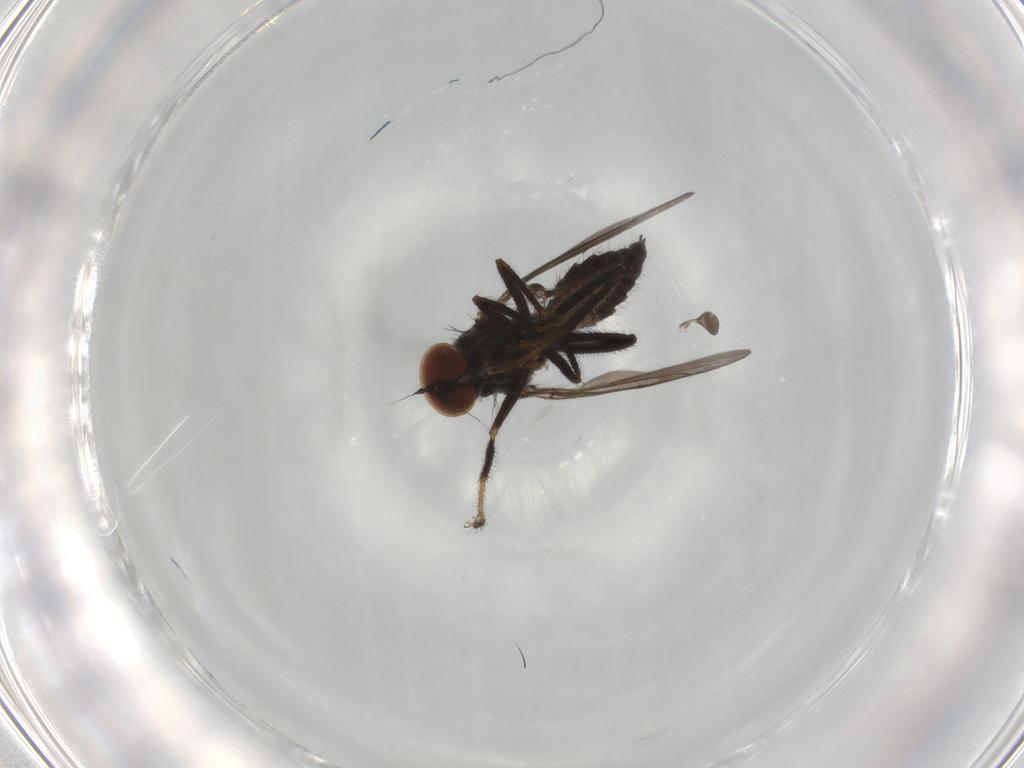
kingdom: Animalia
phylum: Arthropoda
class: Insecta
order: Diptera
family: Hybotidae
